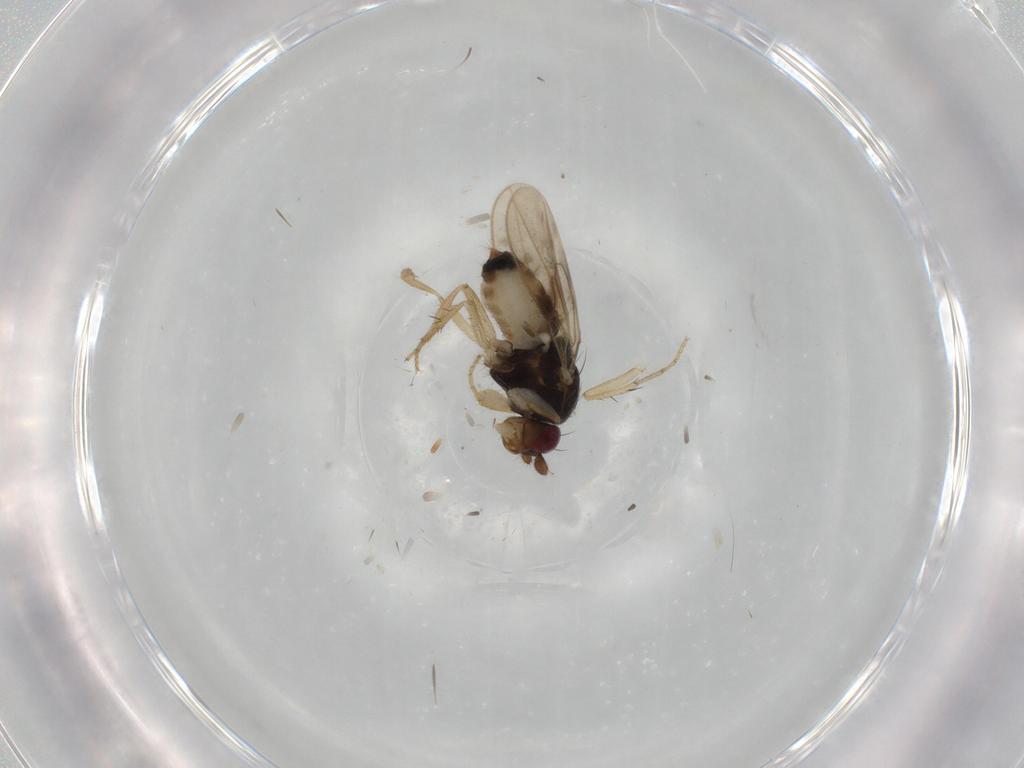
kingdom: Animalia
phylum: Arthropoda
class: Insecta
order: Diptera
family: Sphaeroceridae
